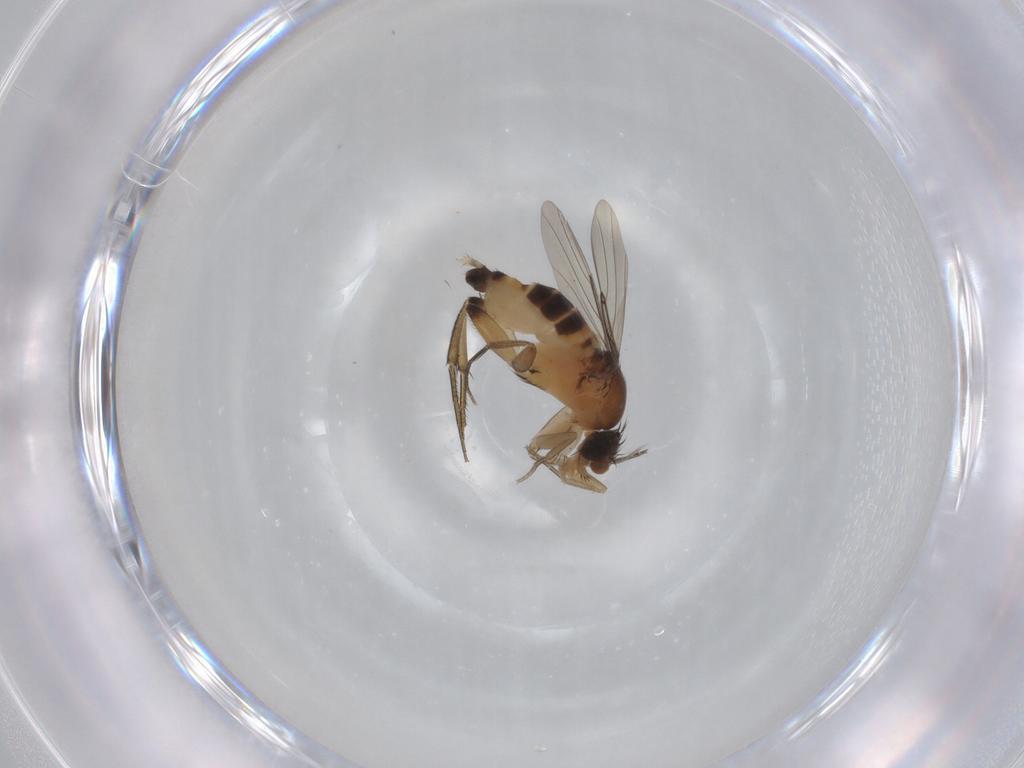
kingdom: Animalia
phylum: Arthropoda
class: Insecta
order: Diptera
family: Phoridae
